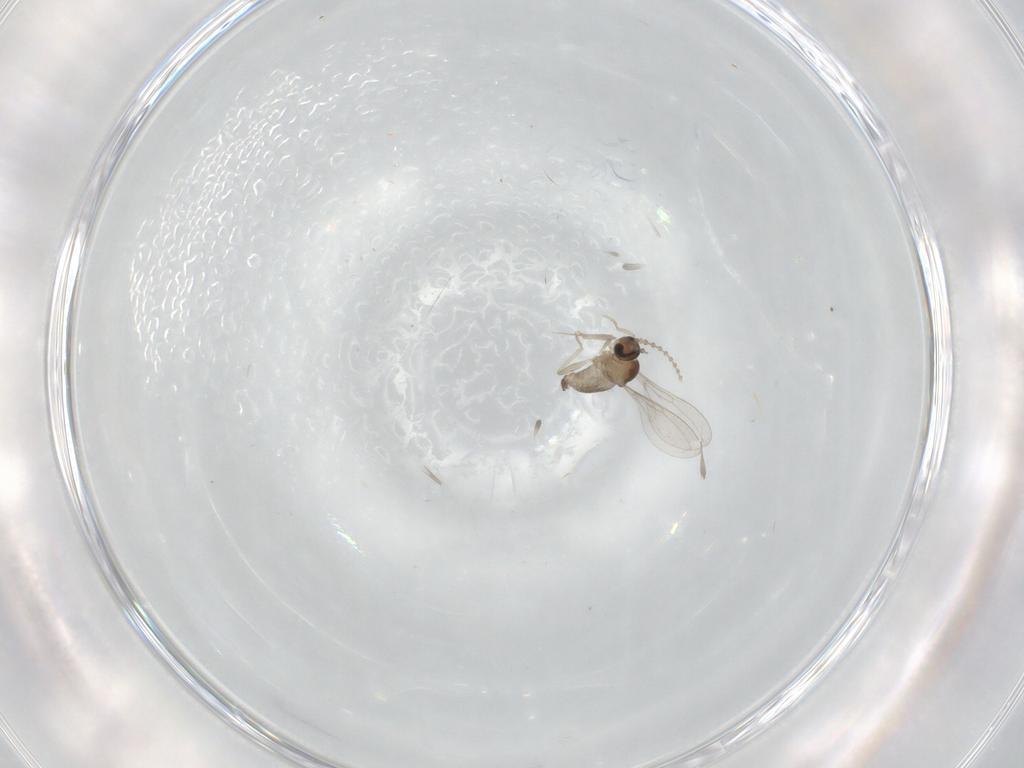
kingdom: Animalia
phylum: Arthropoda
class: Insecta
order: Diptera
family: Cecidomyiidae
